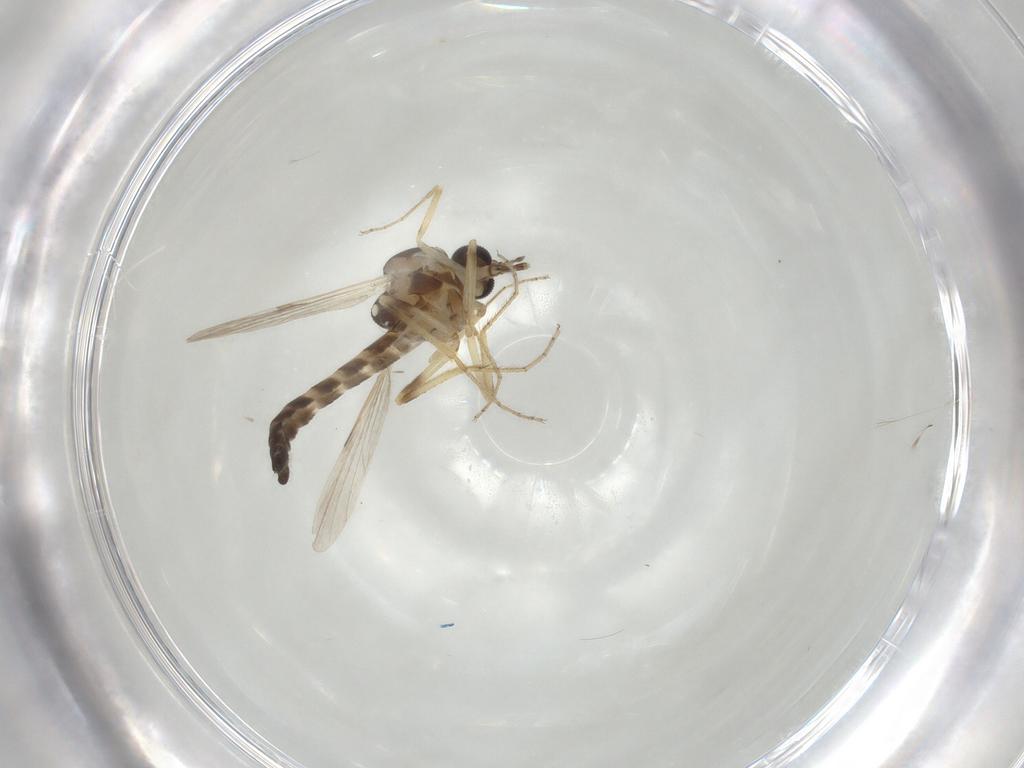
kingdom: Animalia
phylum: Arthropoda
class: Insecta
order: Diptera
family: Ceratopogonidae
